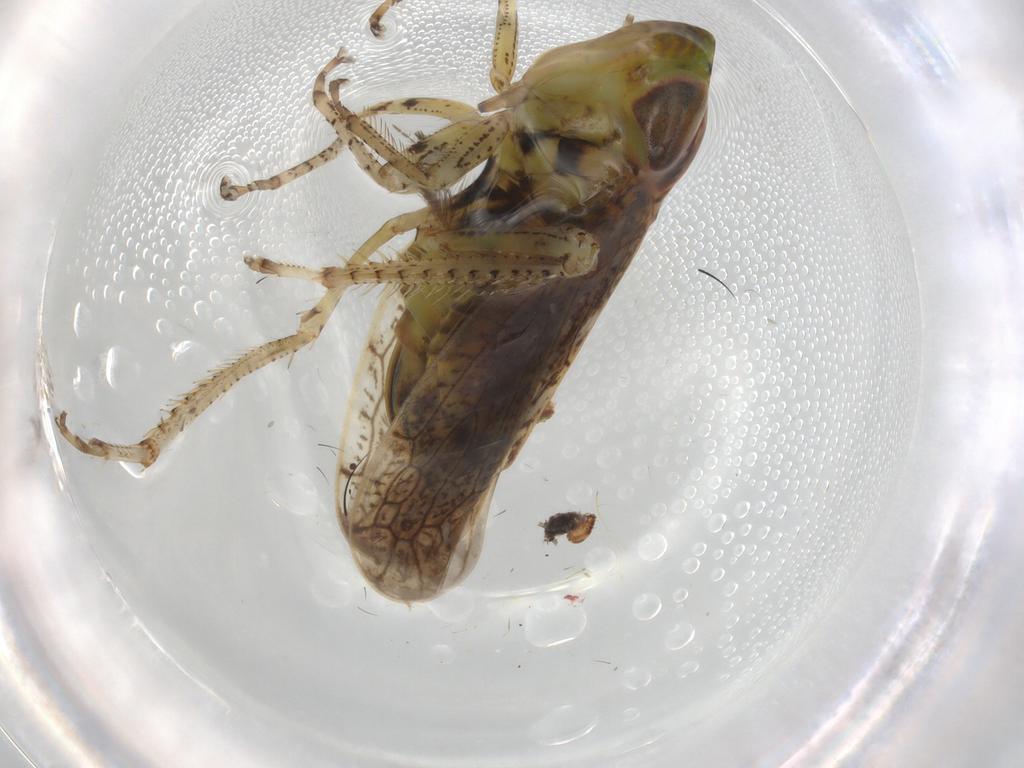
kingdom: Animalia
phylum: Arthropoda
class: Insecta
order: Hemiptera
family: Cicadellidae
